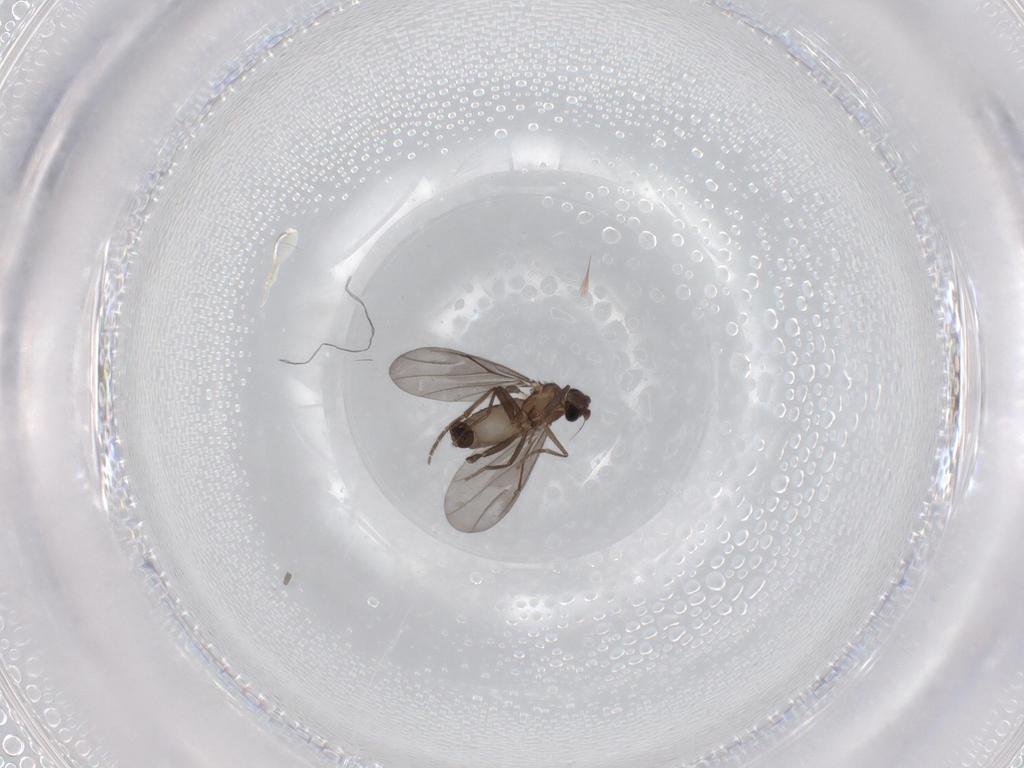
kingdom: Animalia
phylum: Arthropoda
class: Insecta
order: Diptera
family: Phoridae
